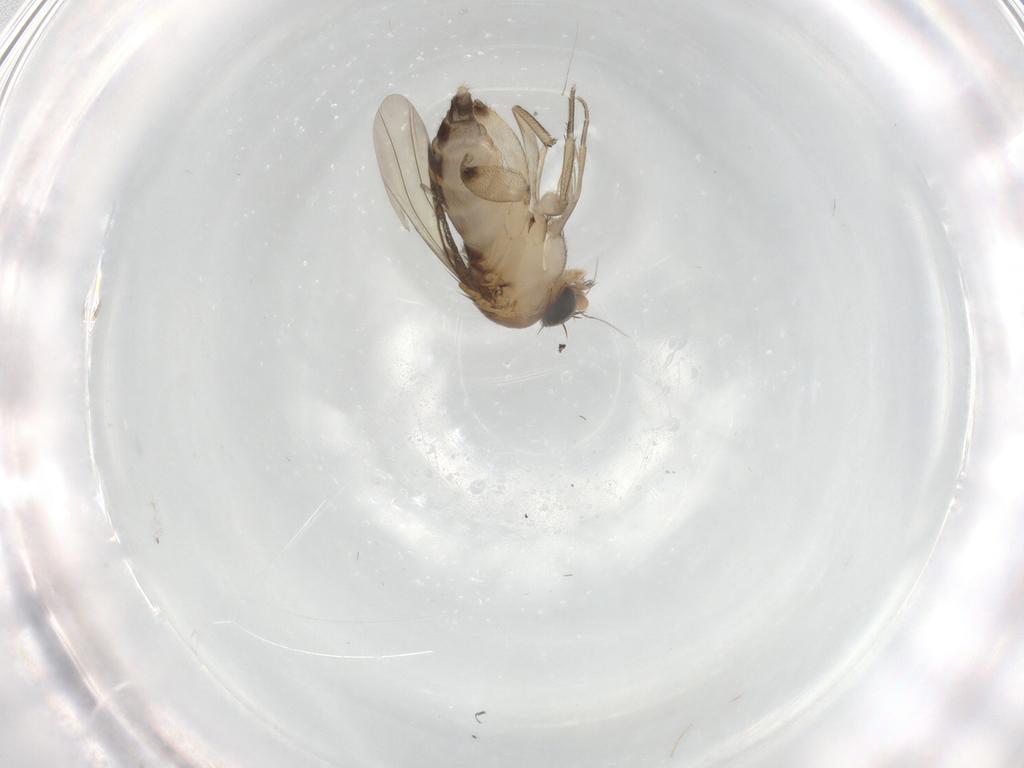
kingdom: Animalia
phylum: Arthropoda
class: Insecta
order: Diptera
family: Phoridae
